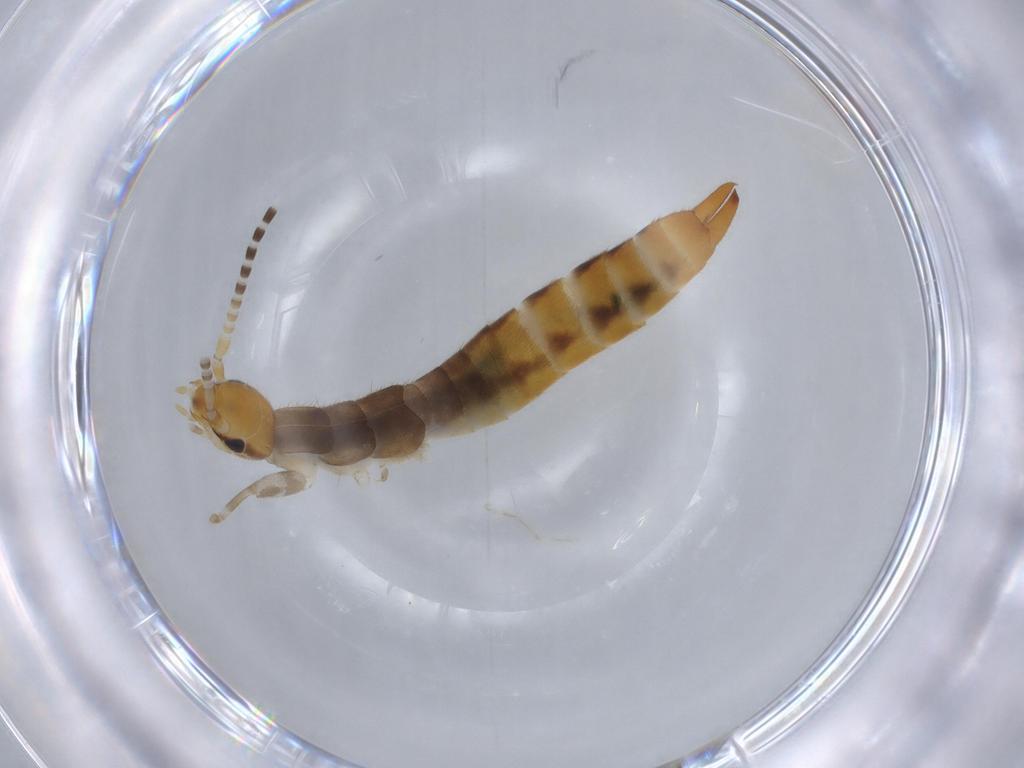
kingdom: Animalia
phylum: Arthropoda
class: Insecta
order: Dermaptera
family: Forficulidae
